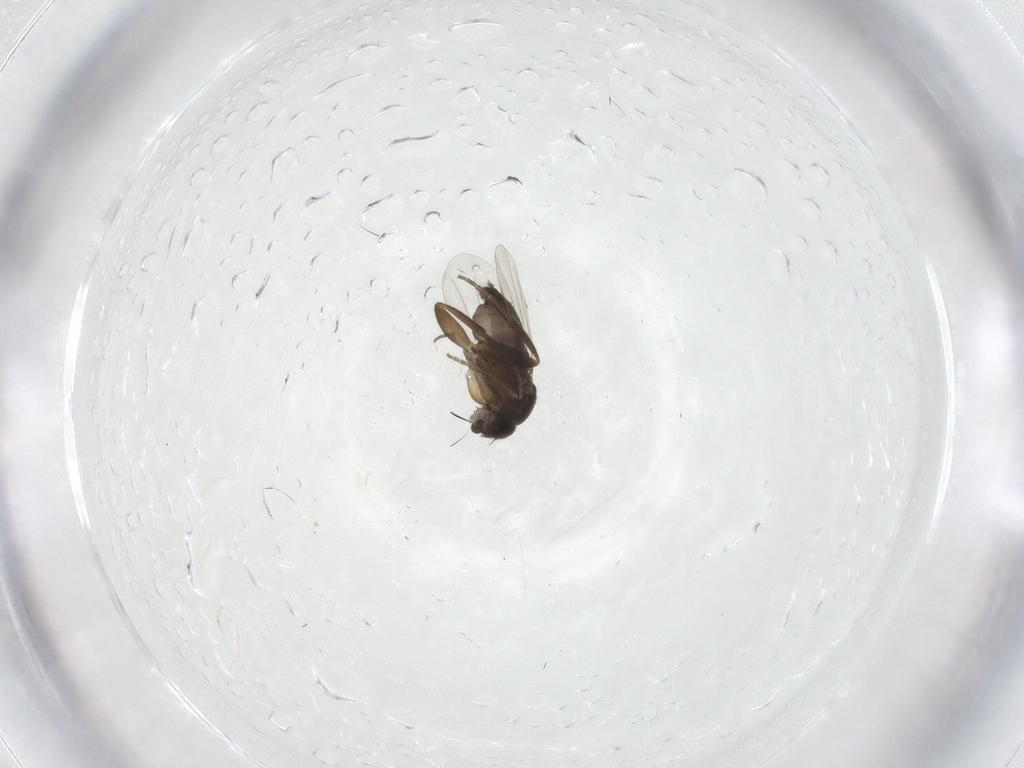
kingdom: Animalia
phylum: Arthropoda
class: Insecta
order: Diptera
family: Phoridae
